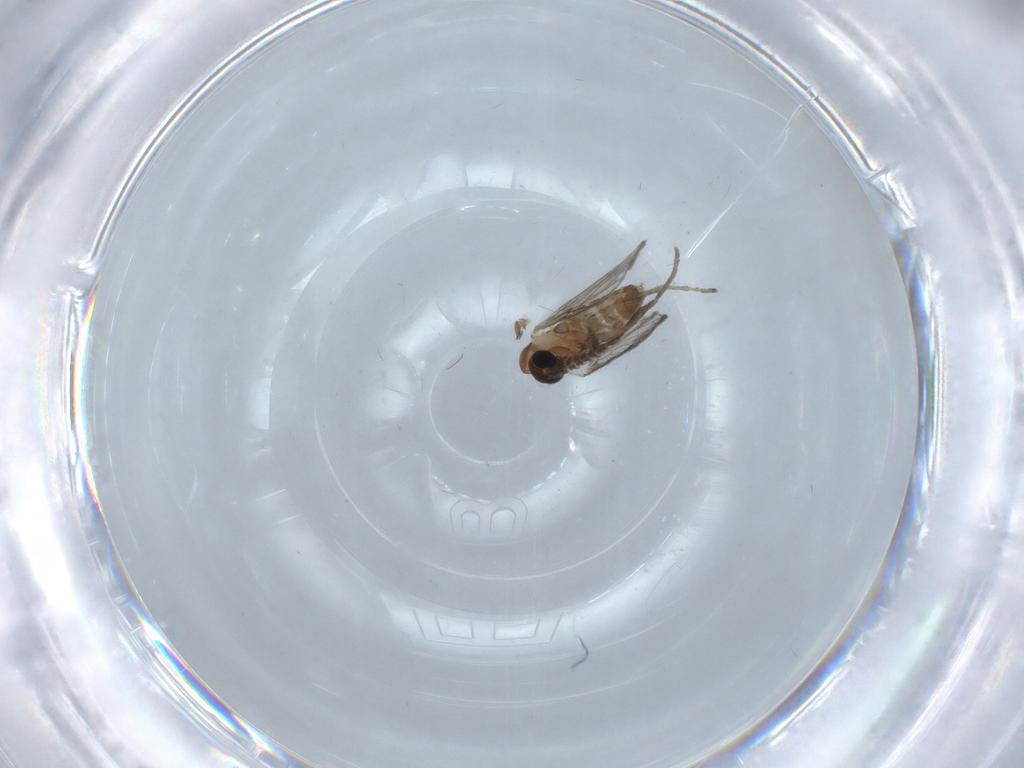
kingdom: Animalia
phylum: Arthropoda
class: Insecta
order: Diptera
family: Psychodidae
